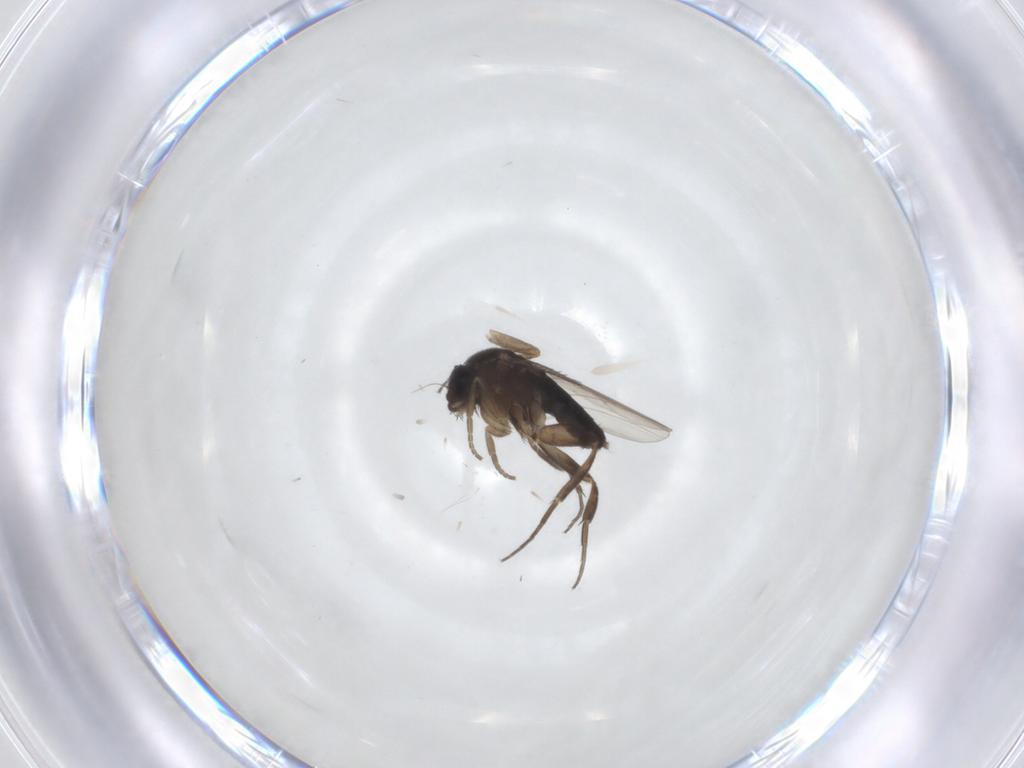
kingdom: Animalia
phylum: Arthropoda
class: Insecta
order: Diptera
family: Phoridae
